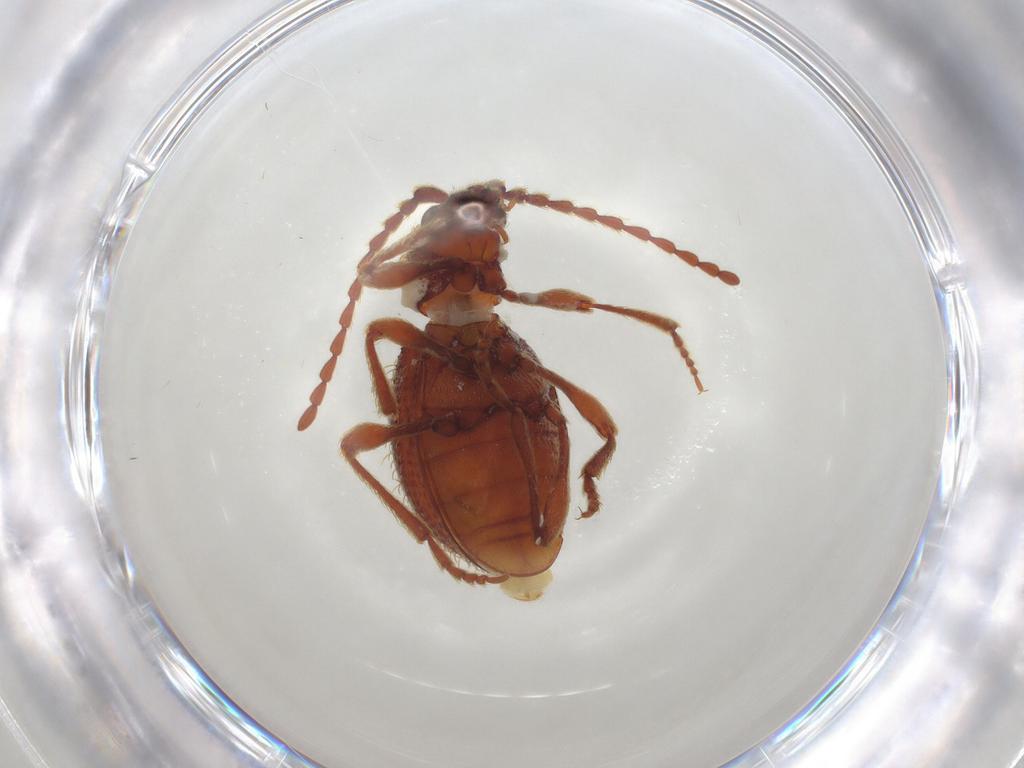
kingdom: Animalia
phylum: Arthropoda
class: Insecta
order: Coleoptera
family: Ptinidae
